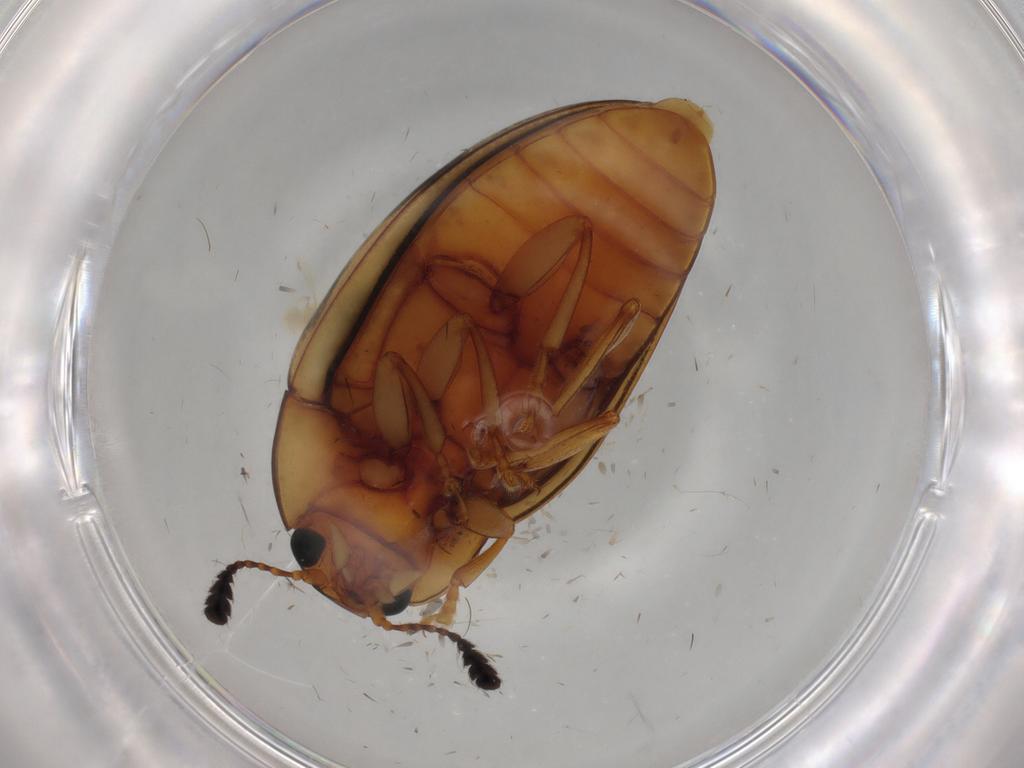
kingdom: Animalia
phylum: Arthropoda
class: Insecta
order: Coleoptera
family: Erotylidae
